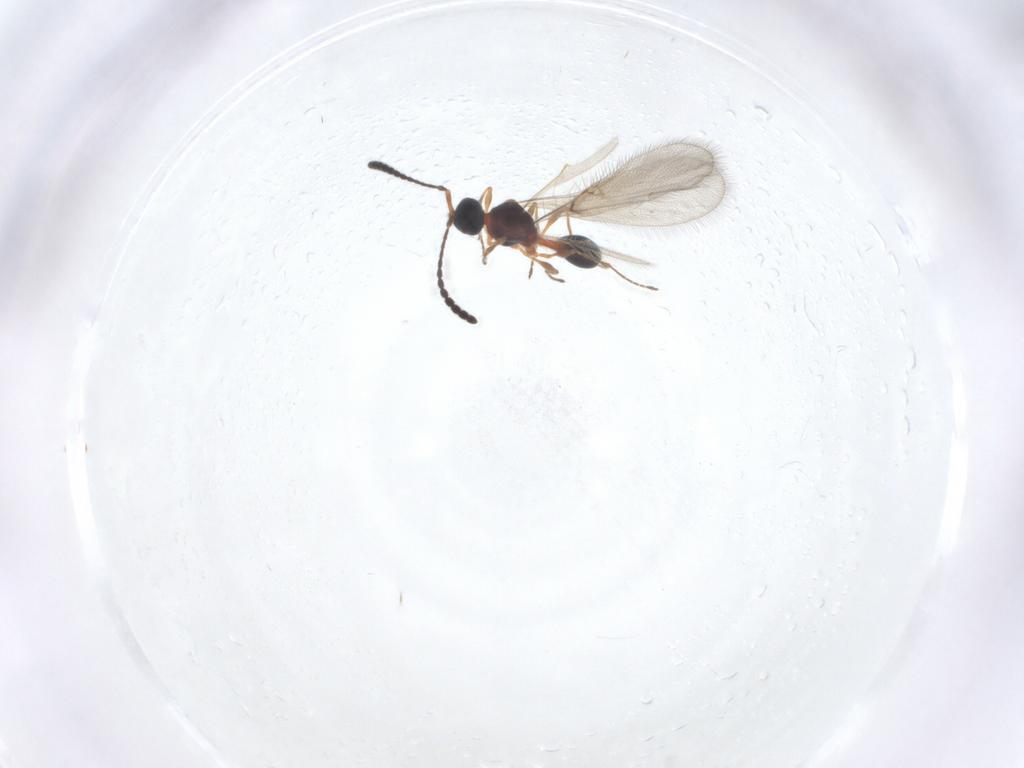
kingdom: Animalia
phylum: Arthropoda
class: Insecta
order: Hymenoptera
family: Diapriidae
